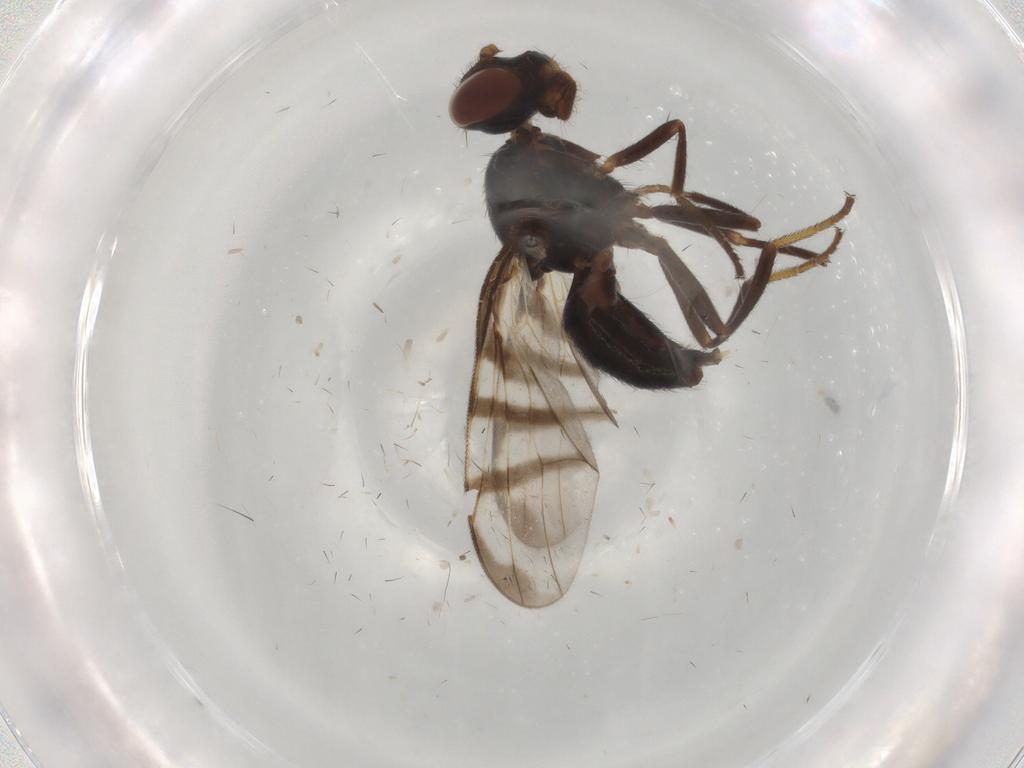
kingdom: Animalia
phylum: Arthropoda
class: Insecta
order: Diptera
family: Platystomatidae
